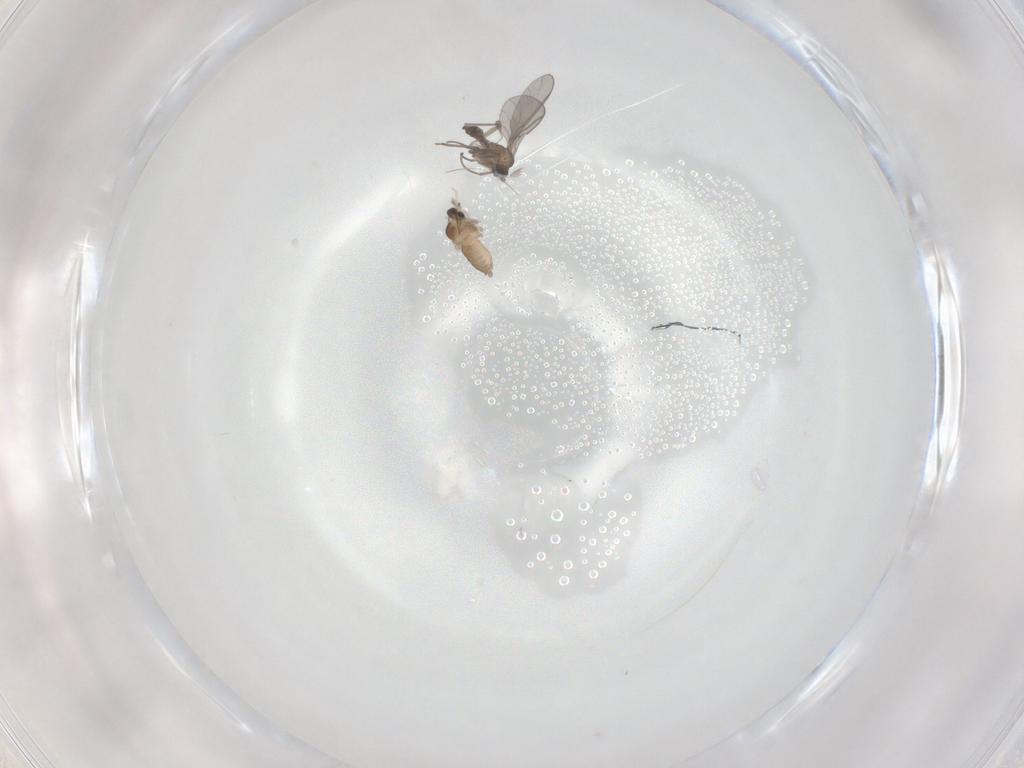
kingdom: Animalia
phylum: Arthropoda
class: Insecta
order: Diptera
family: Cecidomyiidae
